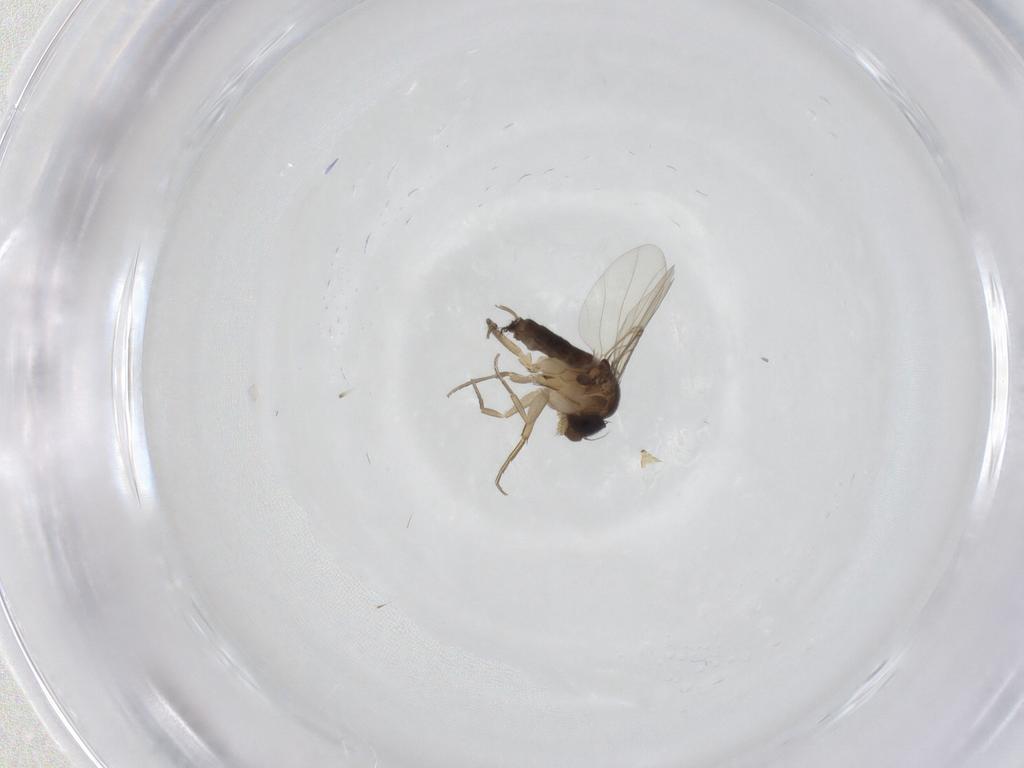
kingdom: Animalia
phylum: Arthropoda
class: Insecta
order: Diptera
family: Phoridae
